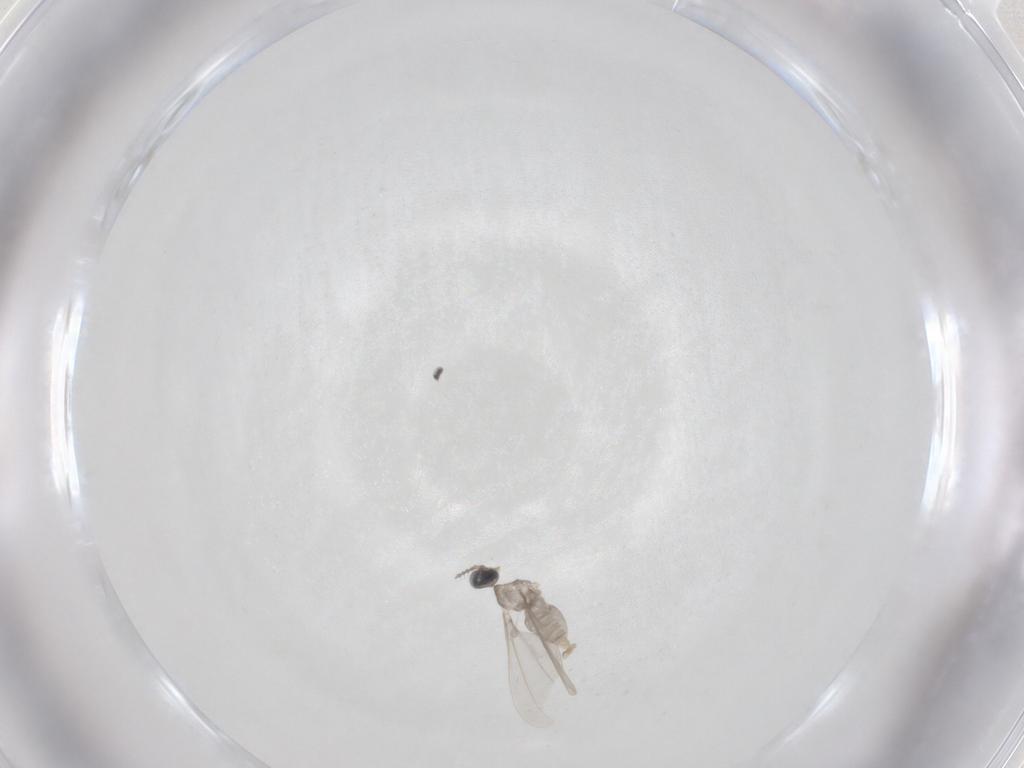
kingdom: Animalia
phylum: Arthropoda
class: Insecta
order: Diptera
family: Cecidomyiidae
